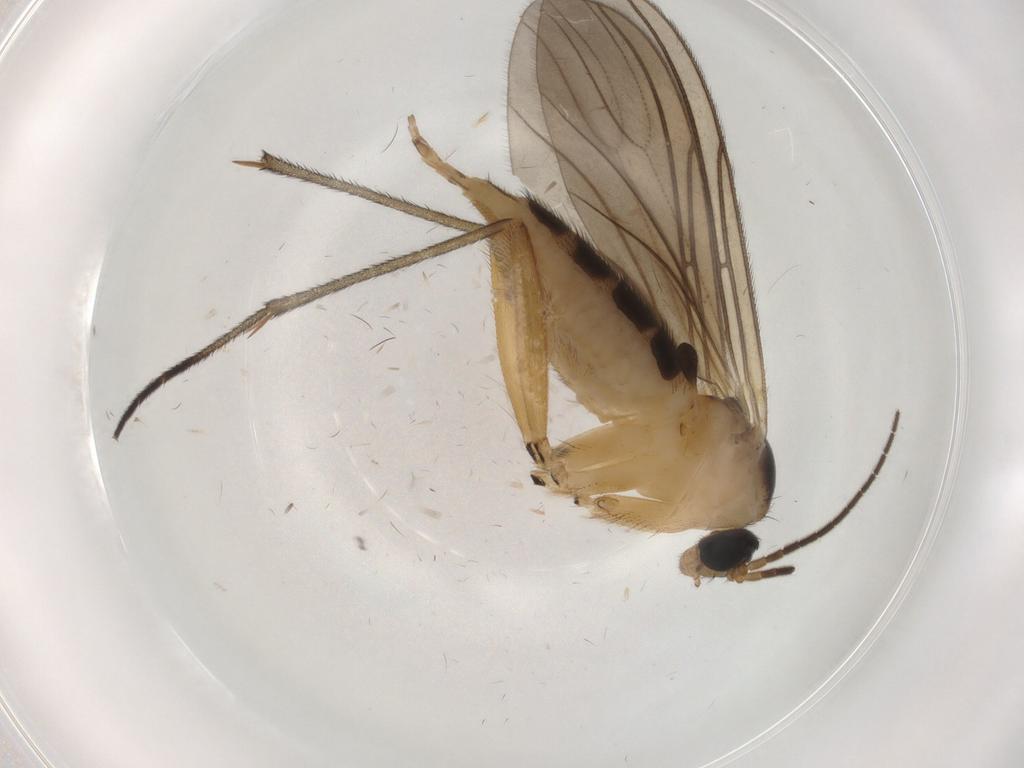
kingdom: Animalia
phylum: Arthropoda
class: Insecta
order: Diptera
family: Sciaridae
